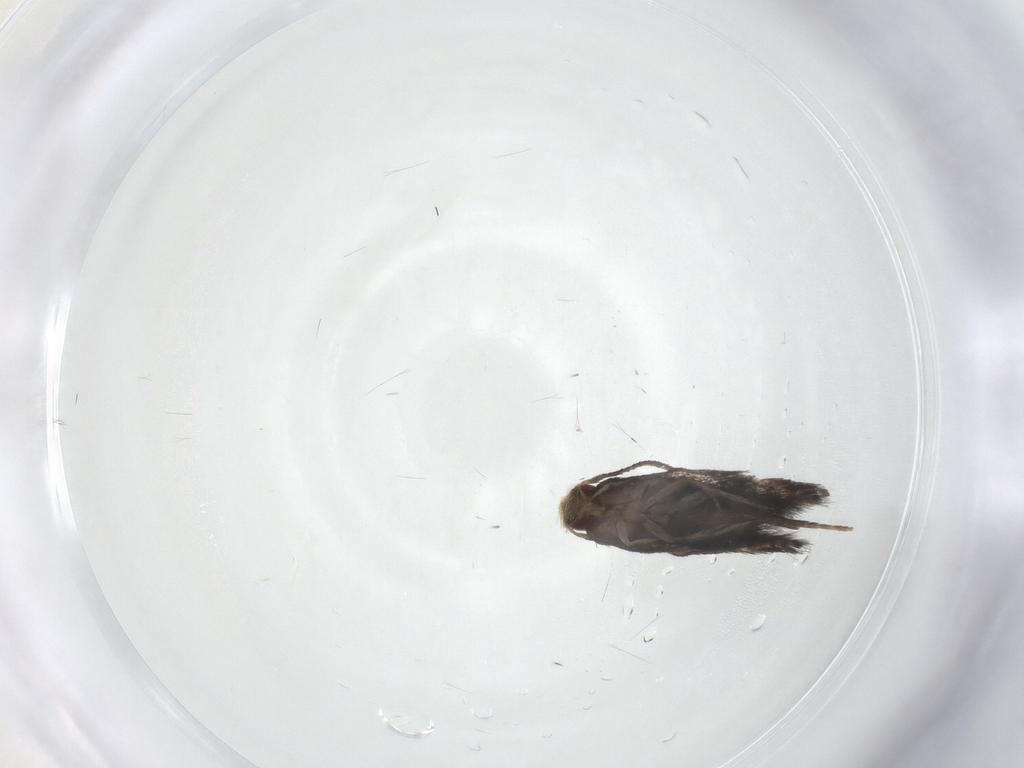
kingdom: Animalia
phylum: Arthropoda
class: Insecta
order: Lepidoptera
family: Erebidae
